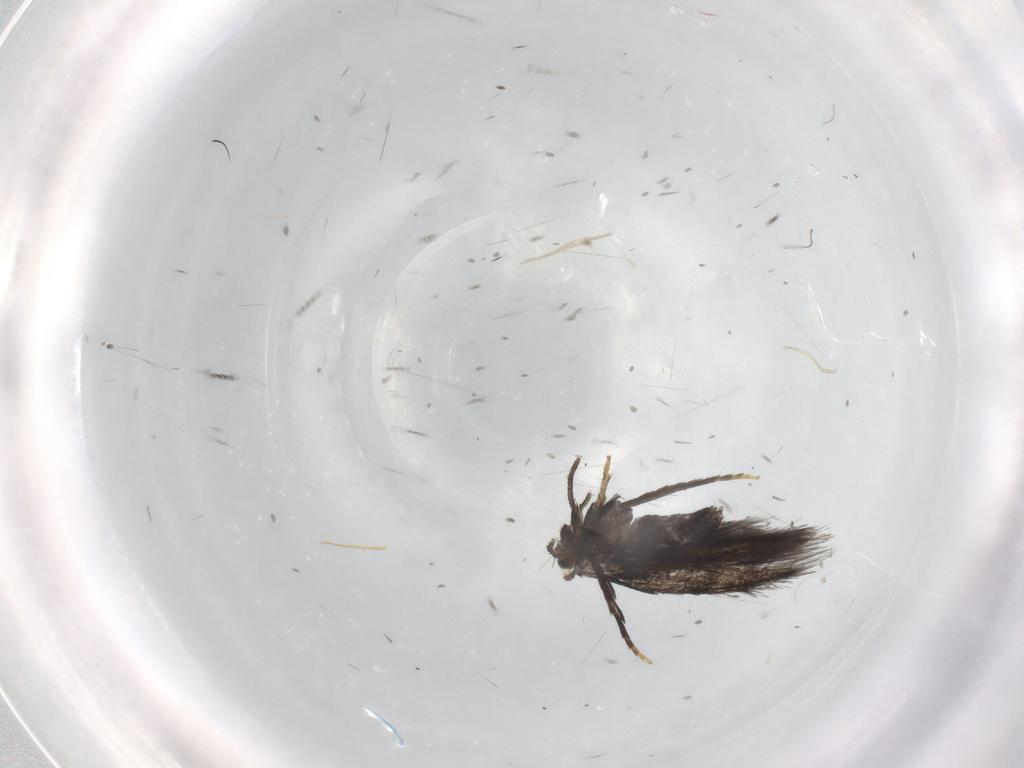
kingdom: Animalia
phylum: Arthropoda
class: Insecta
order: Lepidoptera
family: Nepticulidae
